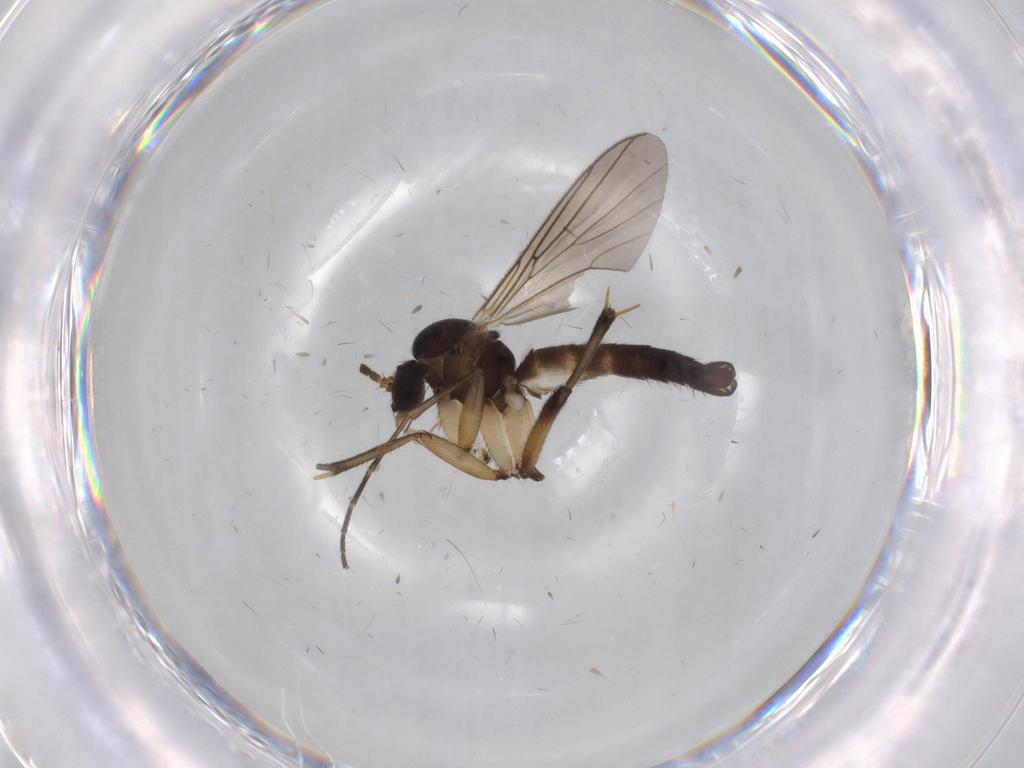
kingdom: Animalia
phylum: Arthropoda
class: Insecta
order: Diptera
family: Mycetophilidae
